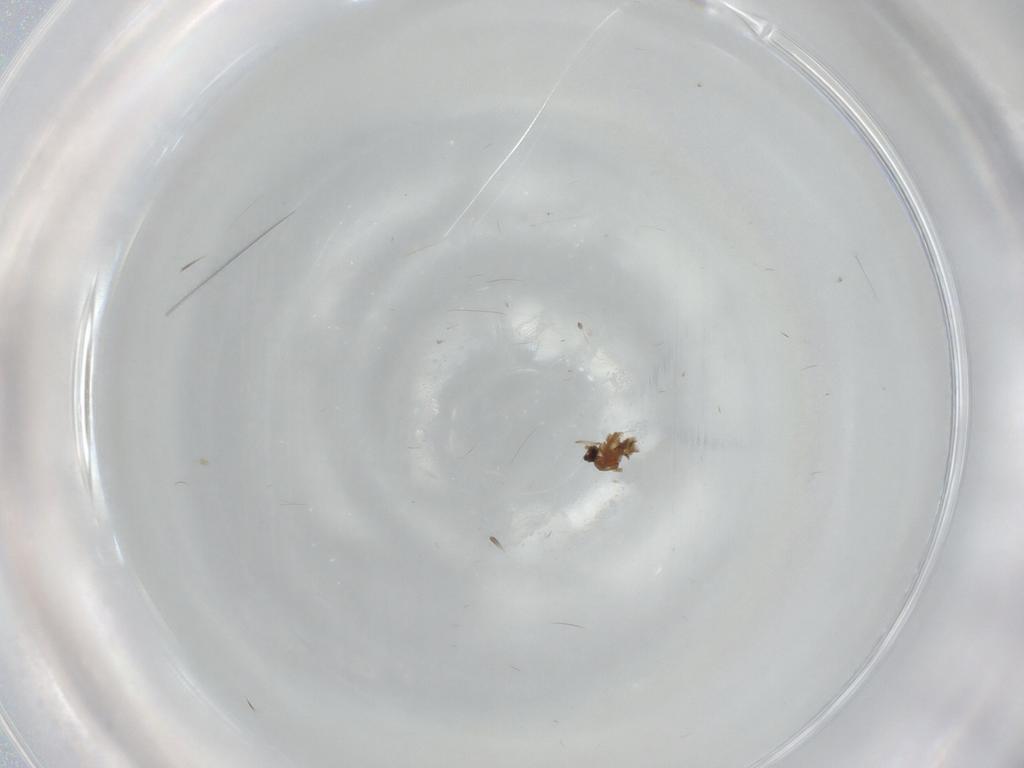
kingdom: Animalia
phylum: Arthropoda
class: Insecta
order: Diptera
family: Cecidomyiidae
